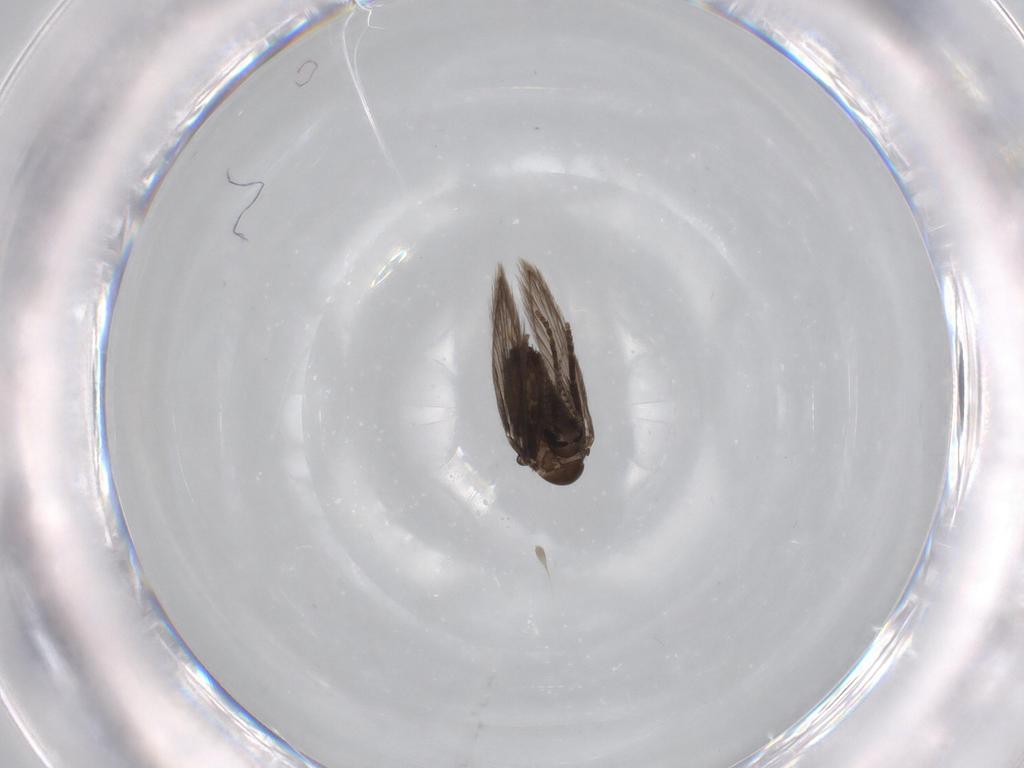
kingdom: Animalia
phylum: Arthropoda
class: Insecta
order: Diptera
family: Psychodidae
